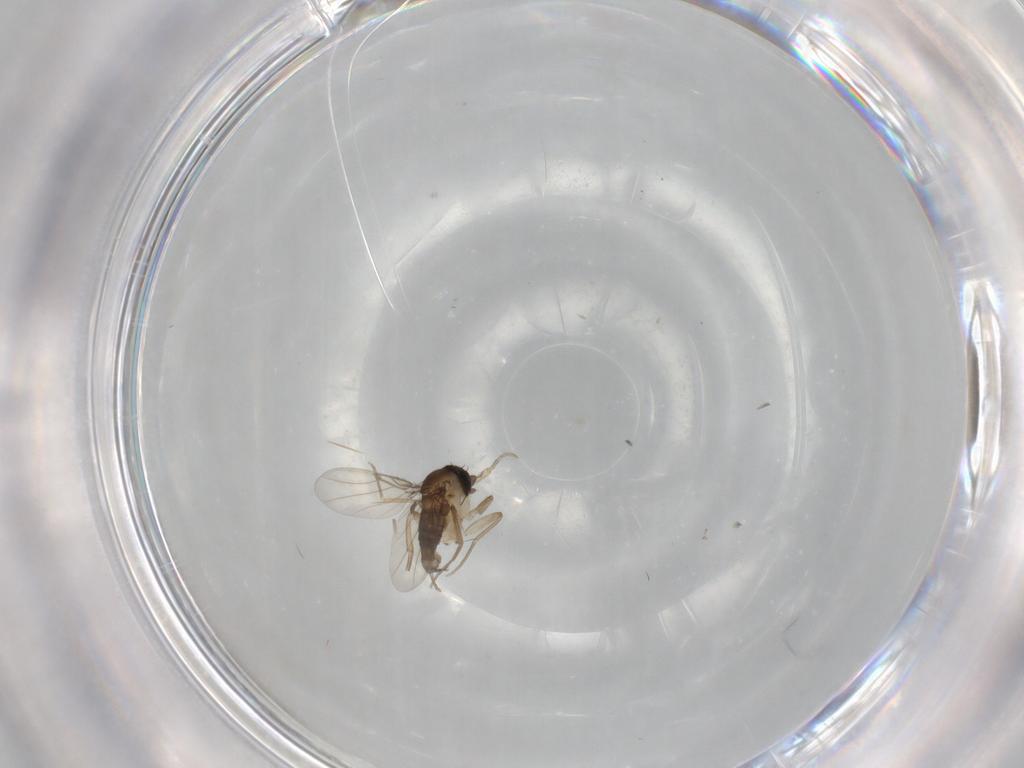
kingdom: Animalia
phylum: Arthropoda
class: Insecta
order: Diptera
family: Phoridae
